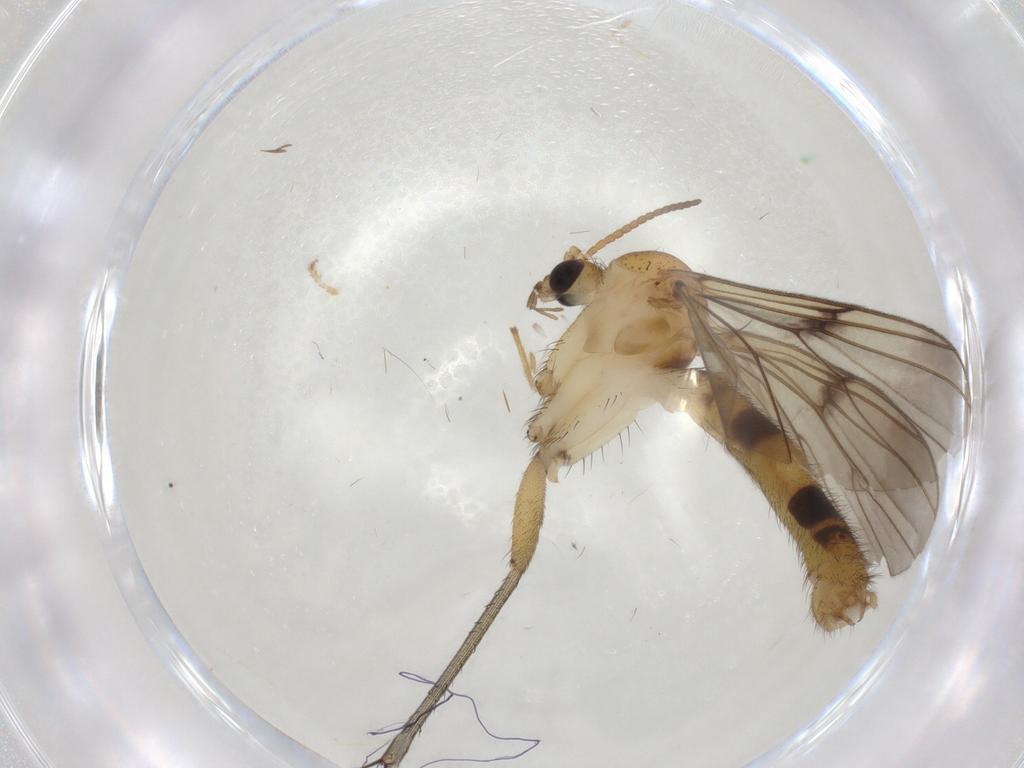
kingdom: Animalia
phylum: Arthropoda
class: Insecta
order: Diptera
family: Mycetophilidae
